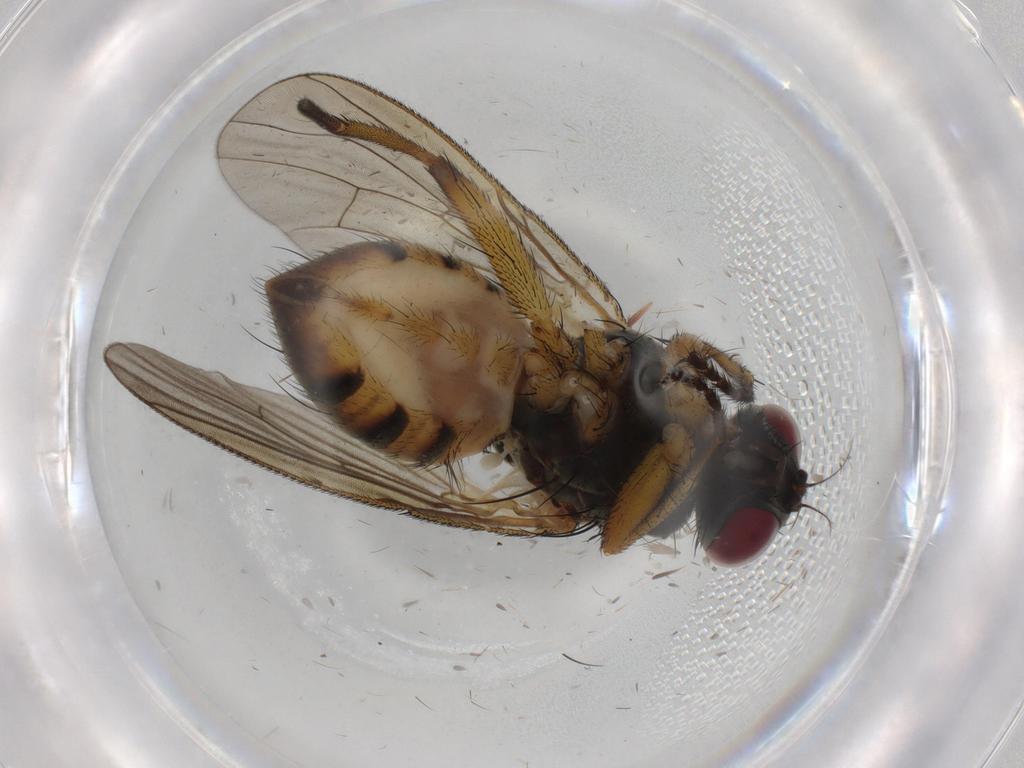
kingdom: Animalia
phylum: Arthropoda
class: Insecta
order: Diptera
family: Muscidae
